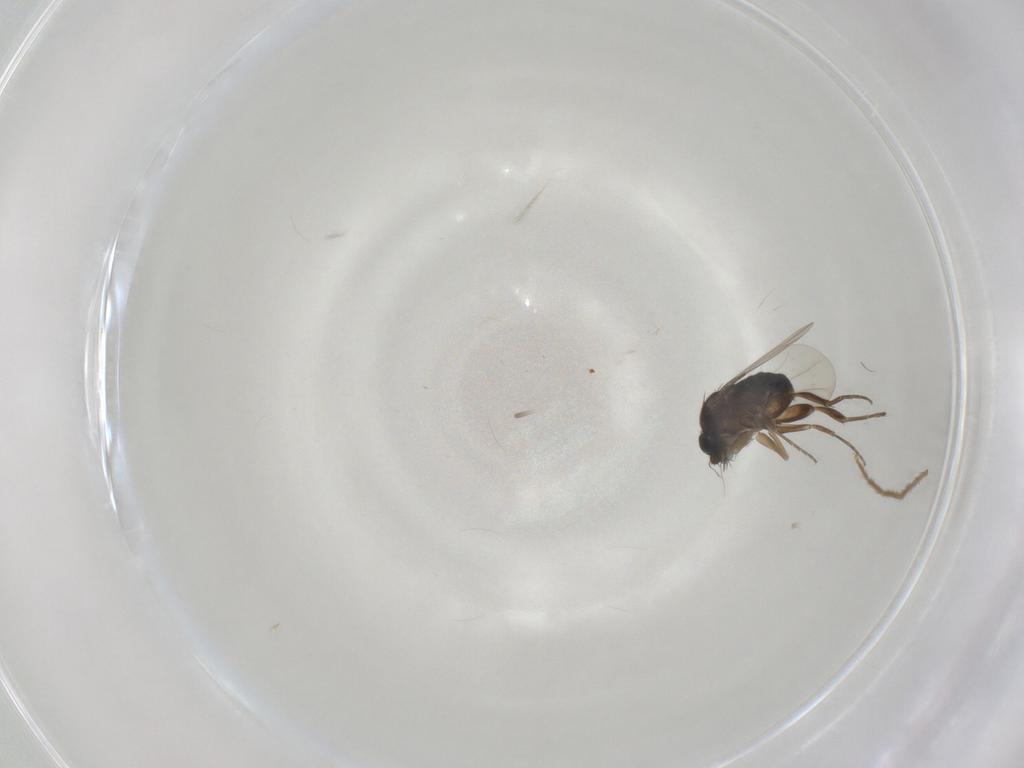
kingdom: Animalia
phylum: Arthropoda
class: Insecta
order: Diptera
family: Phoridae
